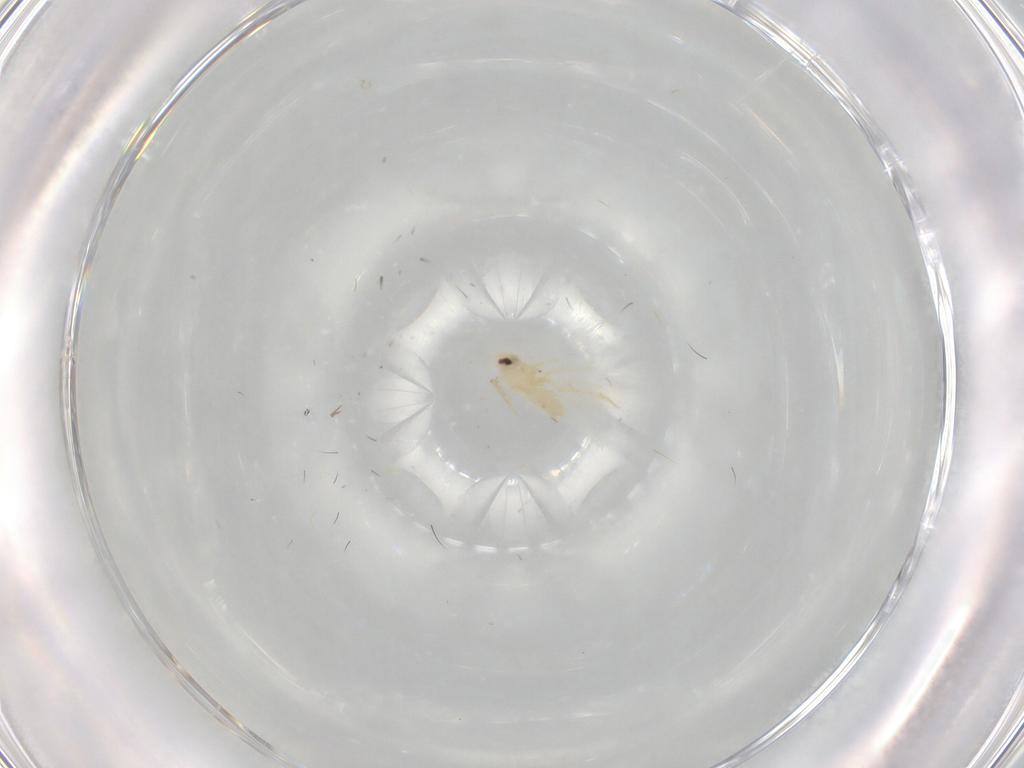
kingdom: Animalia
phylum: Arthropoda
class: Insecta
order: Hemiptera
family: Aleyrodidae
